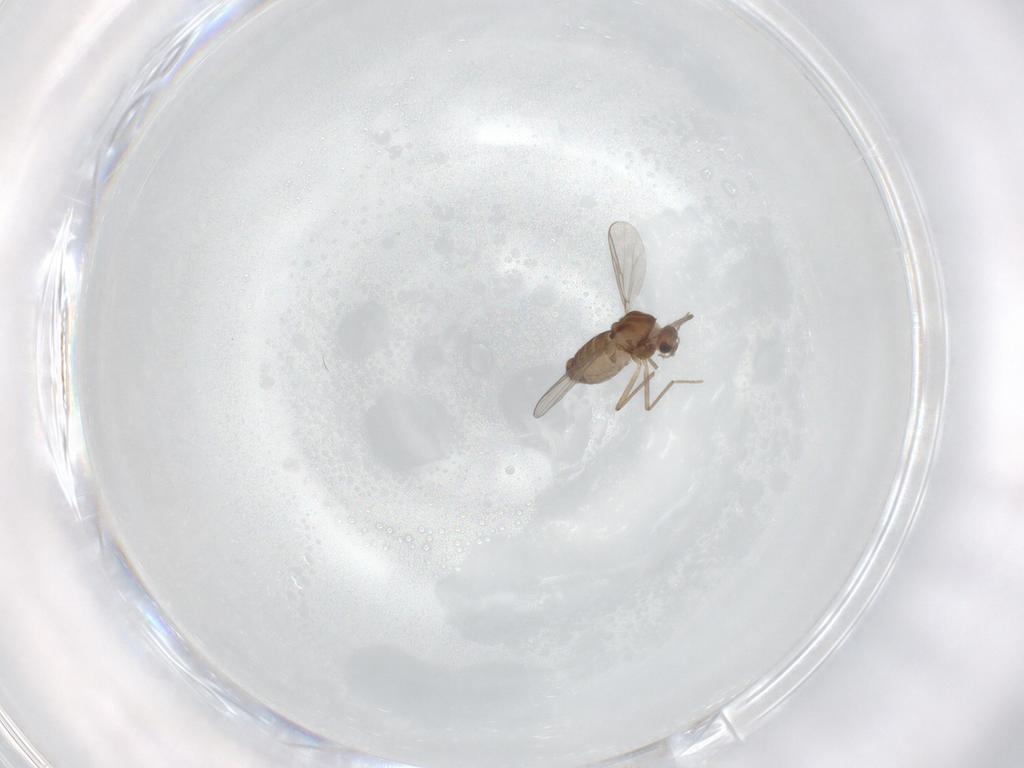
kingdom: Animalia
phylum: Arthropoda
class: Insecta
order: Diptera
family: Chironomidae
